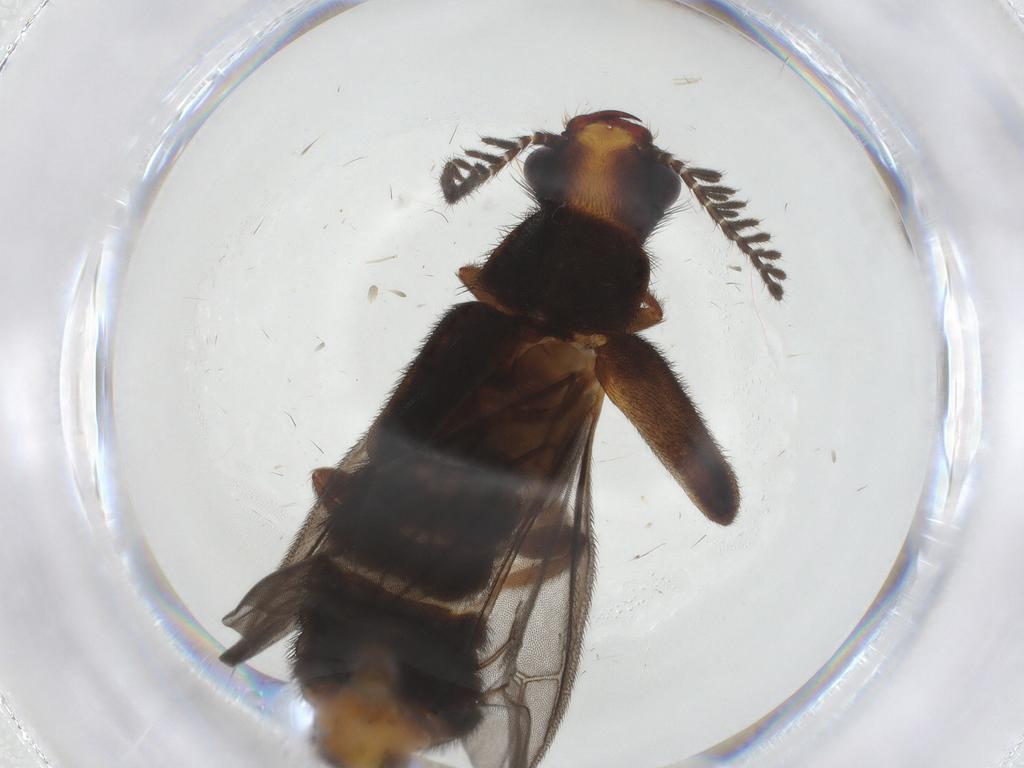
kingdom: Animalia
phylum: Arthropoda
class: Insecta
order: Coleoptera
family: Phengodidae
